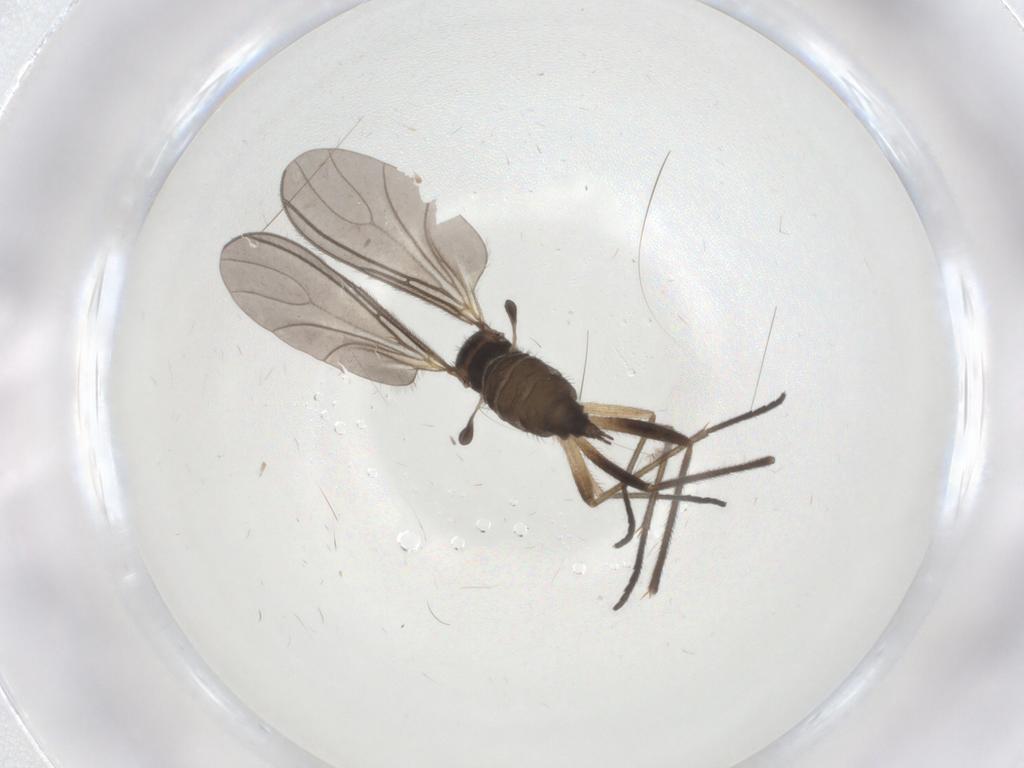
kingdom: Animalia
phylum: Arthropoda
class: Insecta
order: Diptera
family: Sciaridae
